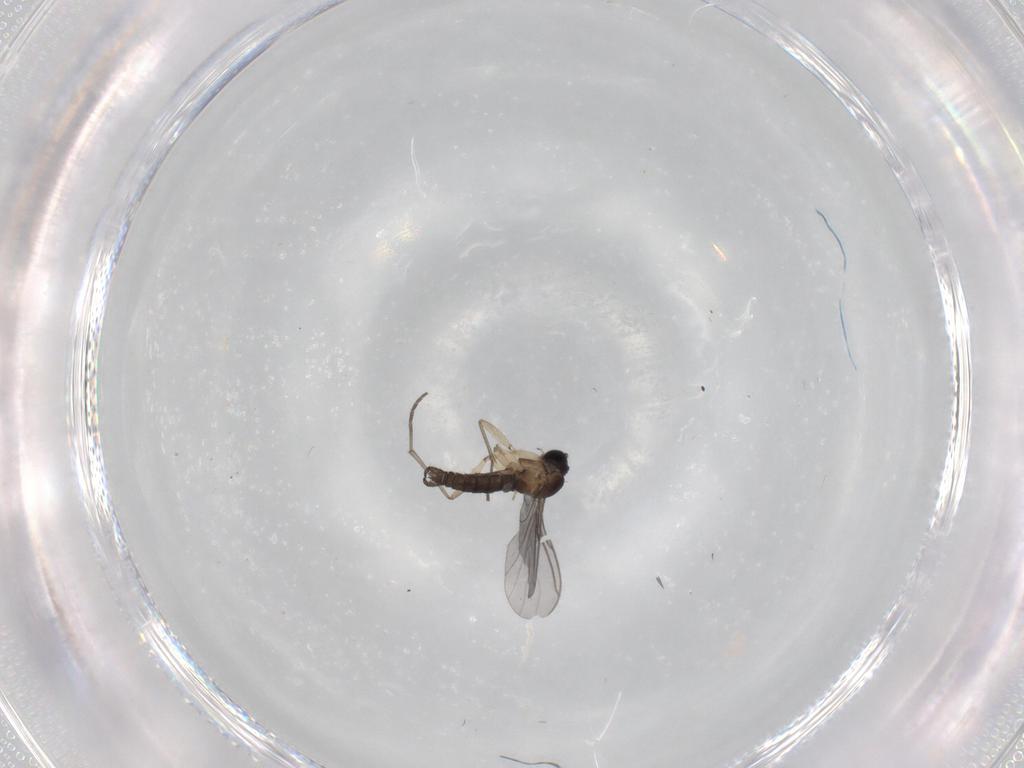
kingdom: Animalia
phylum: Arthropoda
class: Insecta
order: Diptera
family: Sciaridae
